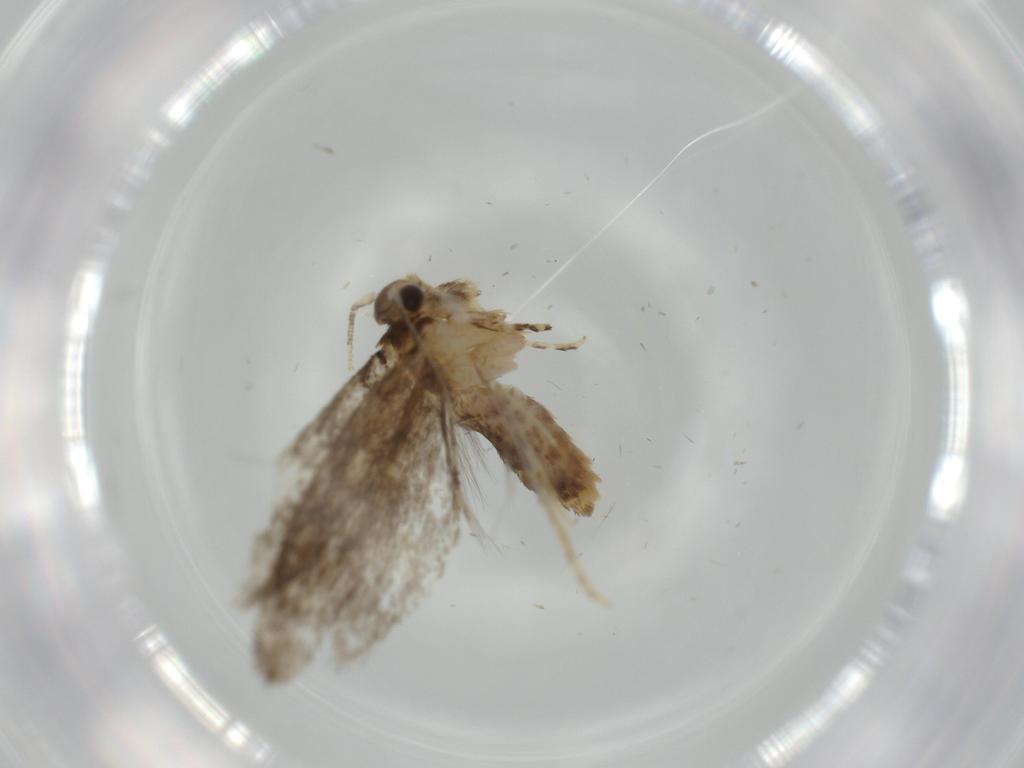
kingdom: Animalia
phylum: Arthropoda
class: Insecta
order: Lepidoptera
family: Tineidae
